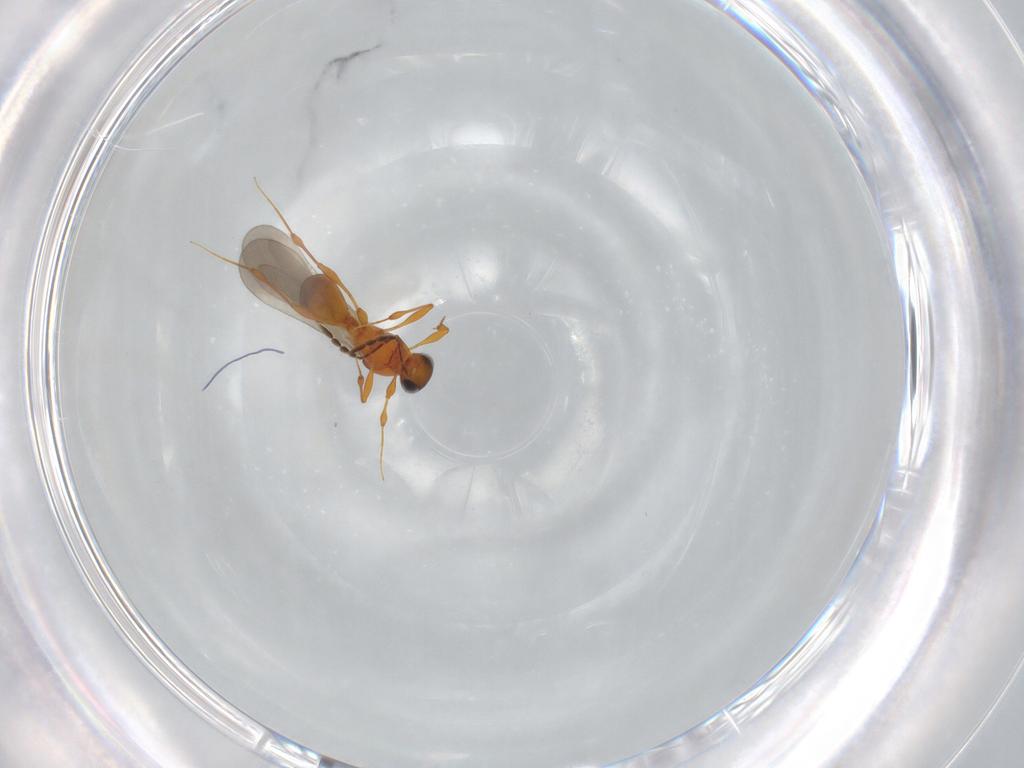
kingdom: Animalia
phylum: Arthropoda
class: Insecta
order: Hymenoptera
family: Platygastridae
